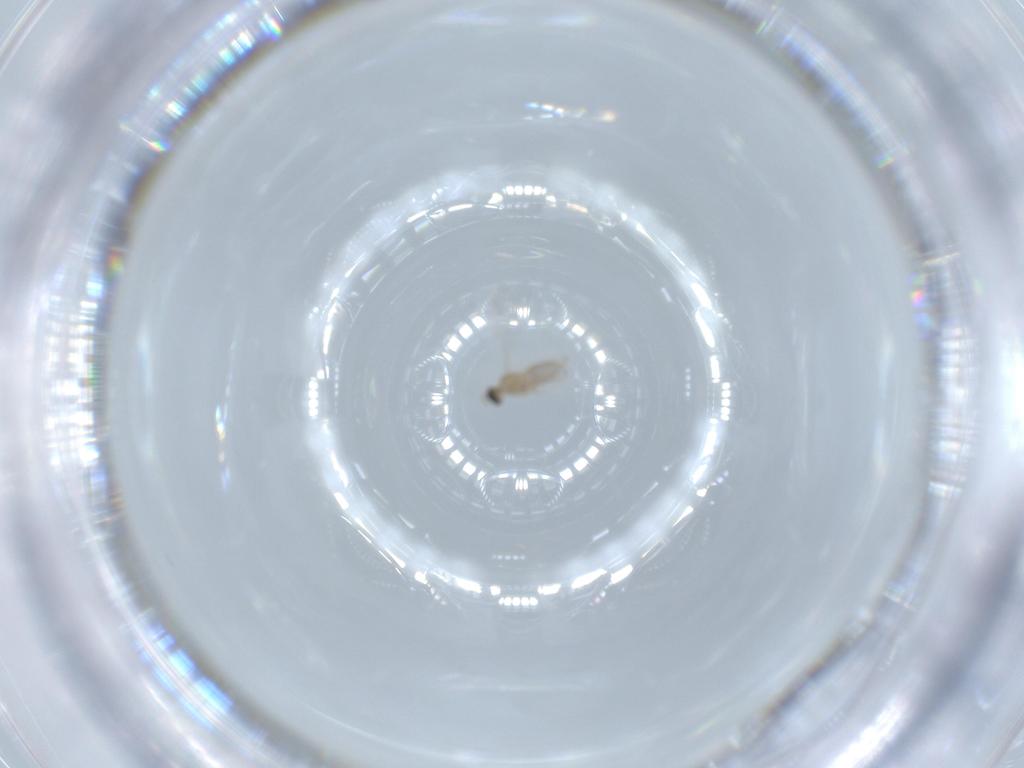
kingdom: Animalia
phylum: Arthropoda
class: Insecta
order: Diptera
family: Cecidomyiidae
